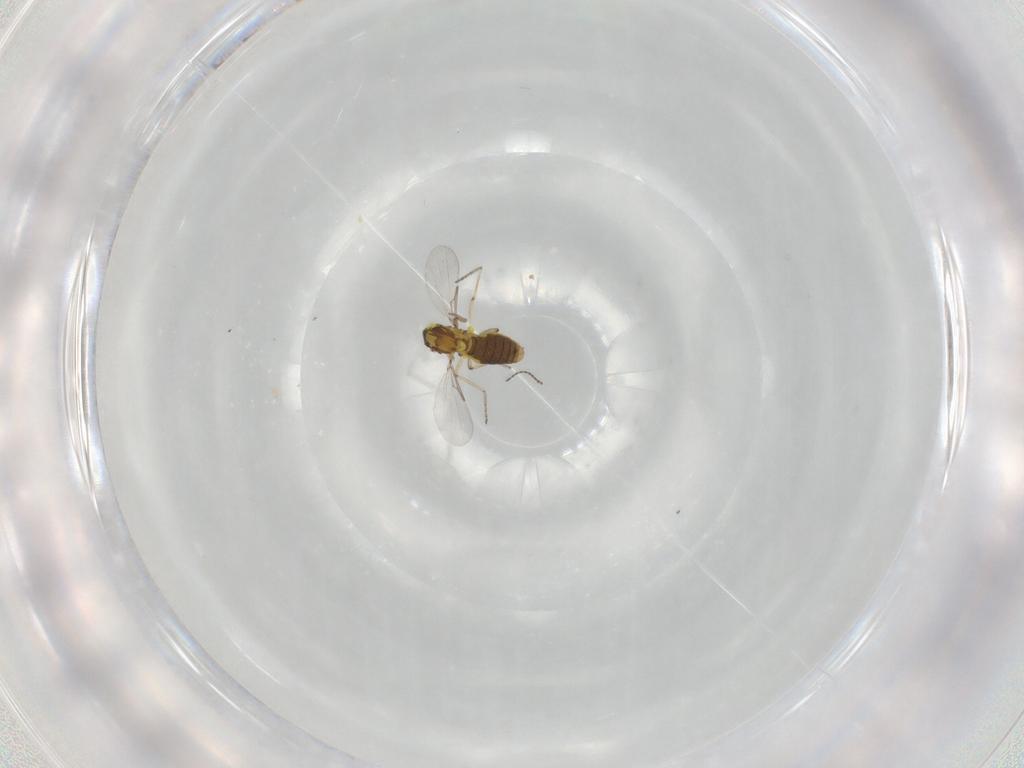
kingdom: Animalia
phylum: Arthropoda
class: Insecta
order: Diptera
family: Ceratopogonidae
